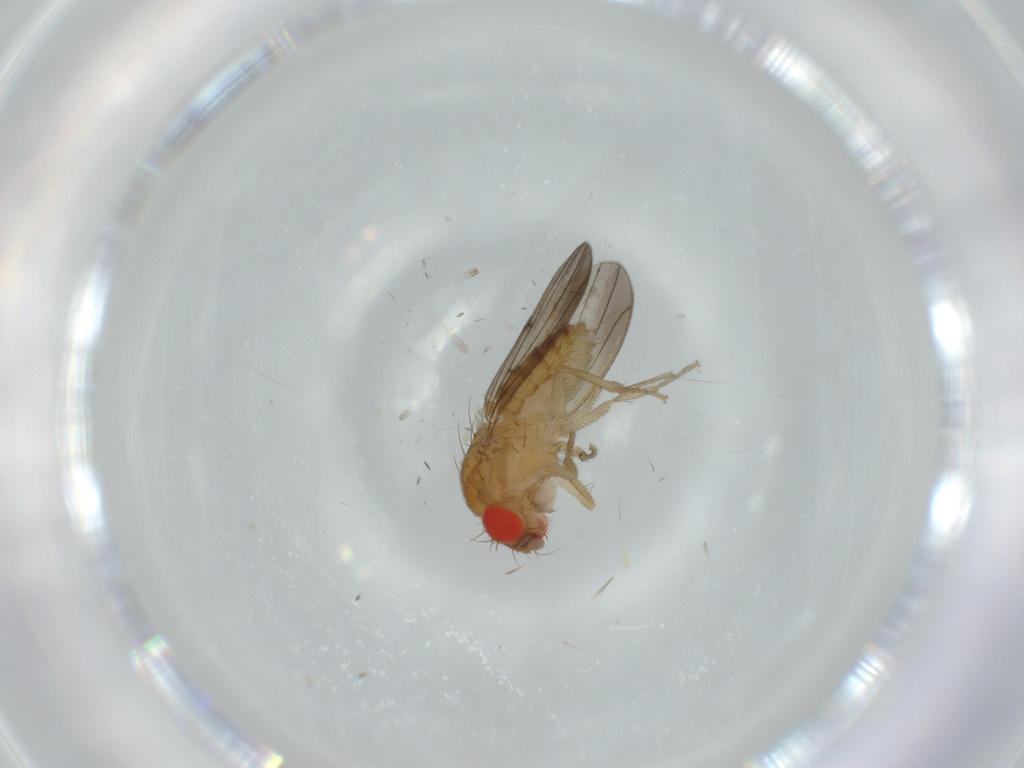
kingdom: Animalia
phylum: Arthropoda
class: Insecta
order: Diptera
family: Drosophilidae
